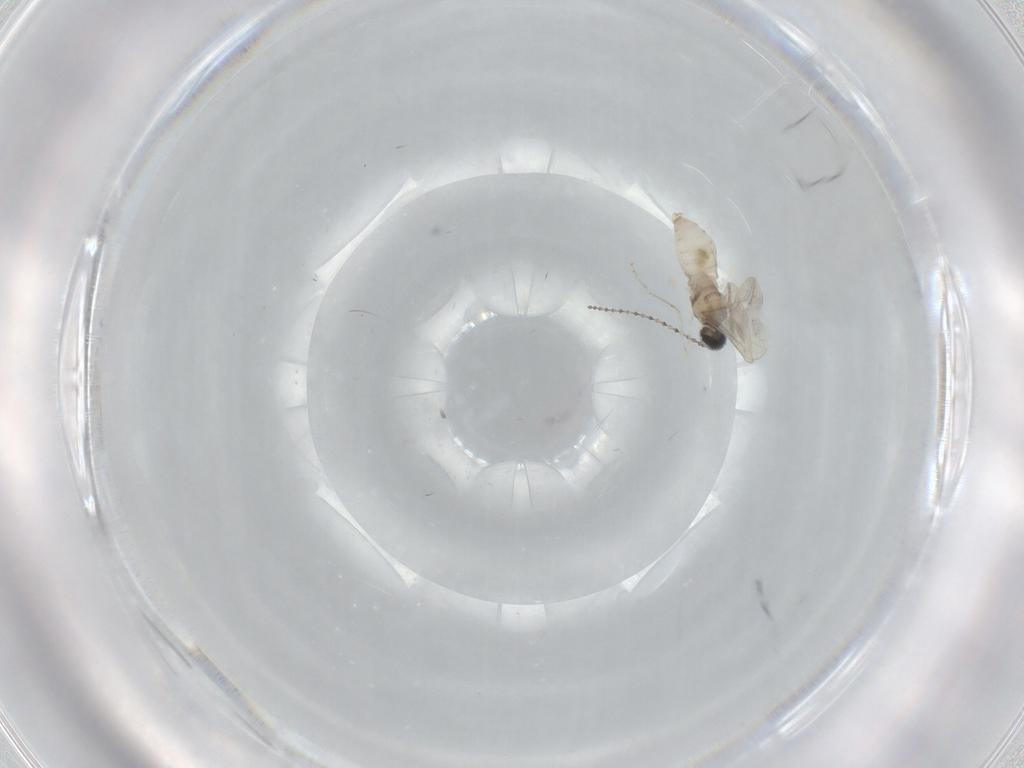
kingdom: Animalia
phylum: Arthropoda
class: Insecta
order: Diptera
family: Cecidomyiidae
